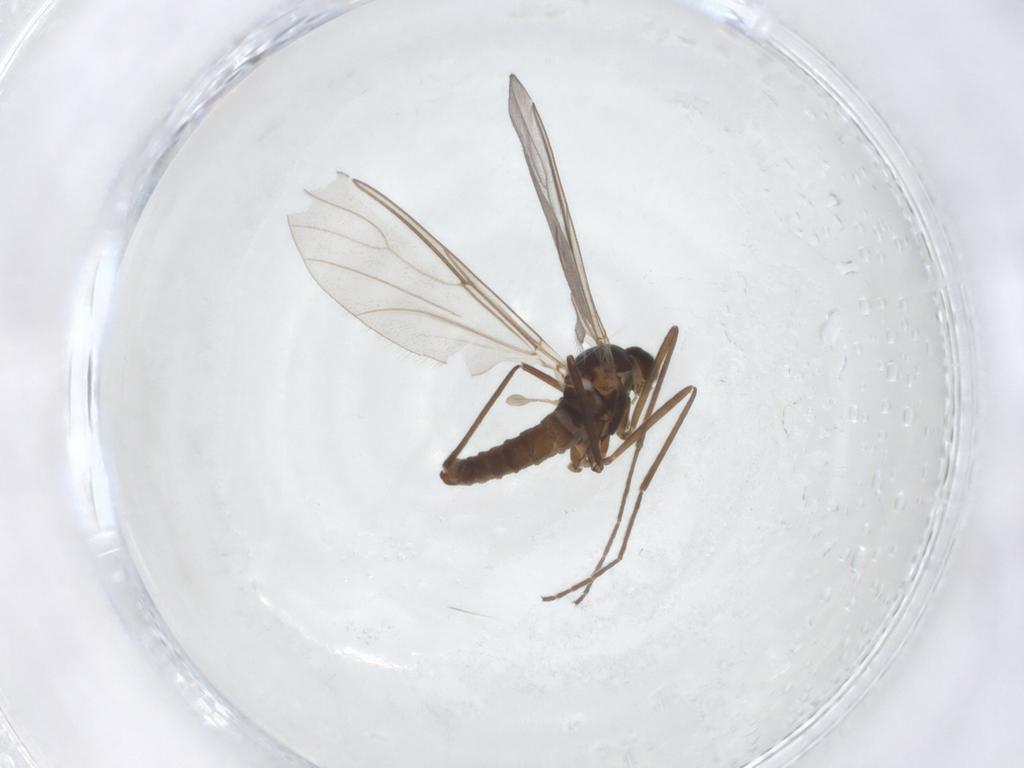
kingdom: Animalia
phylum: Arthropoda
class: Insecta
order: Diptera
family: Cecidomyiidae
